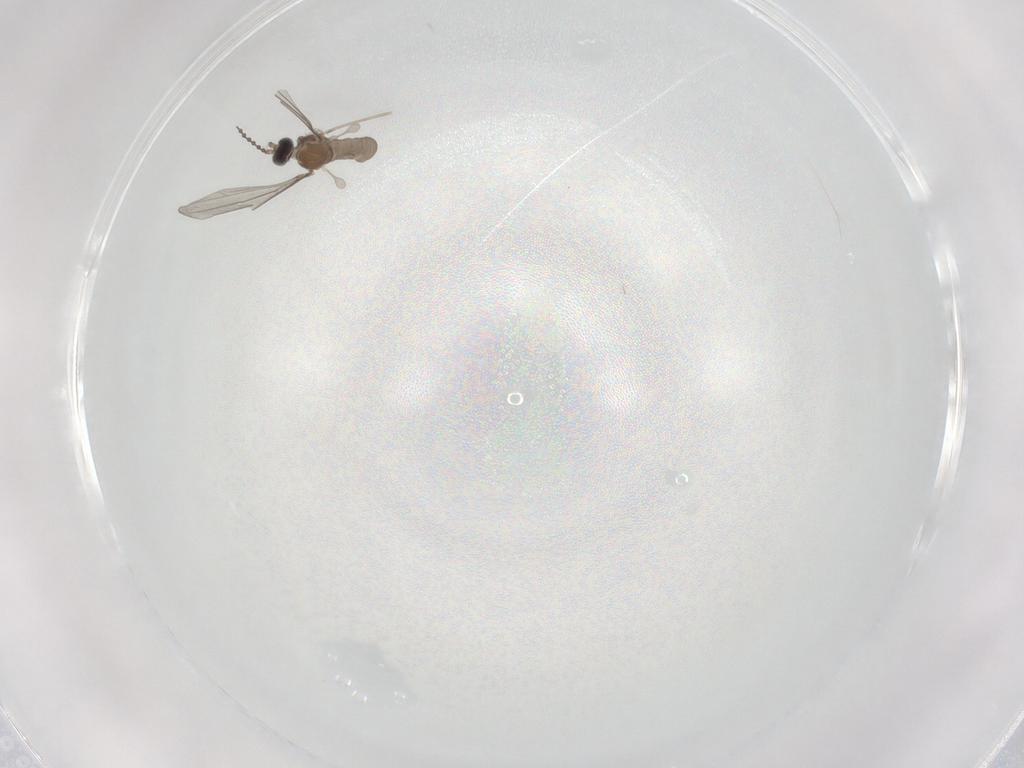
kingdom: Animalia
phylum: Arthropoda
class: Insecta
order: Diptera
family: Cecidomyiidae
